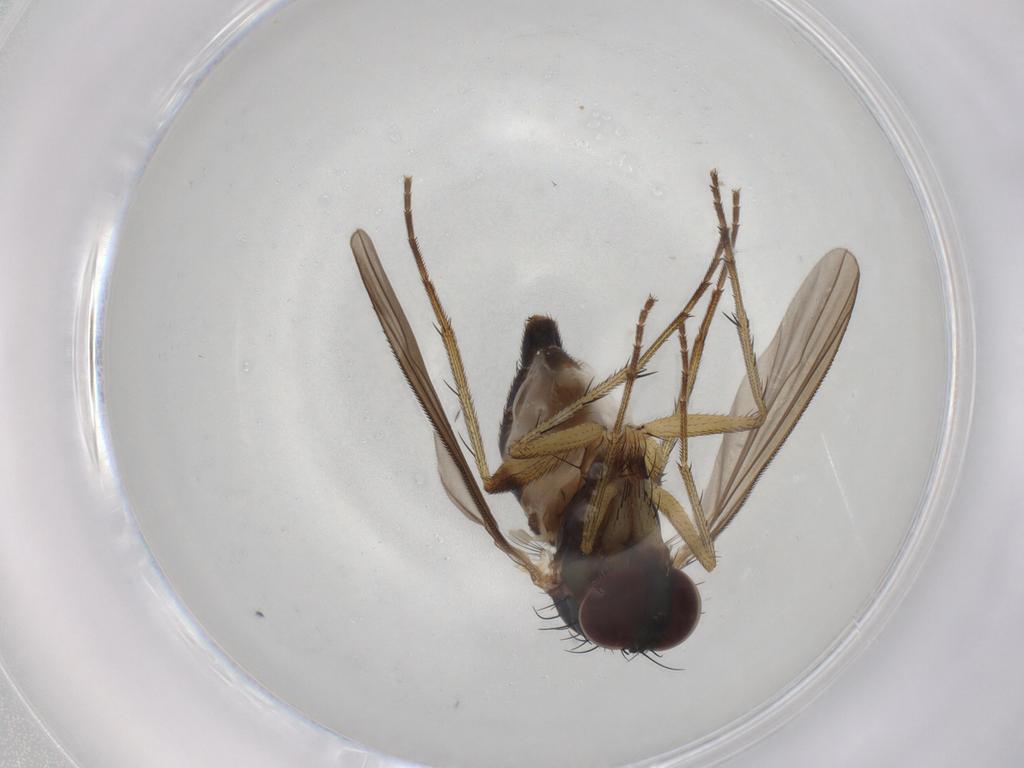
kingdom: Animalia
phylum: Arthropoda
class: Insecta
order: Diptera
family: Dolichopodidae
